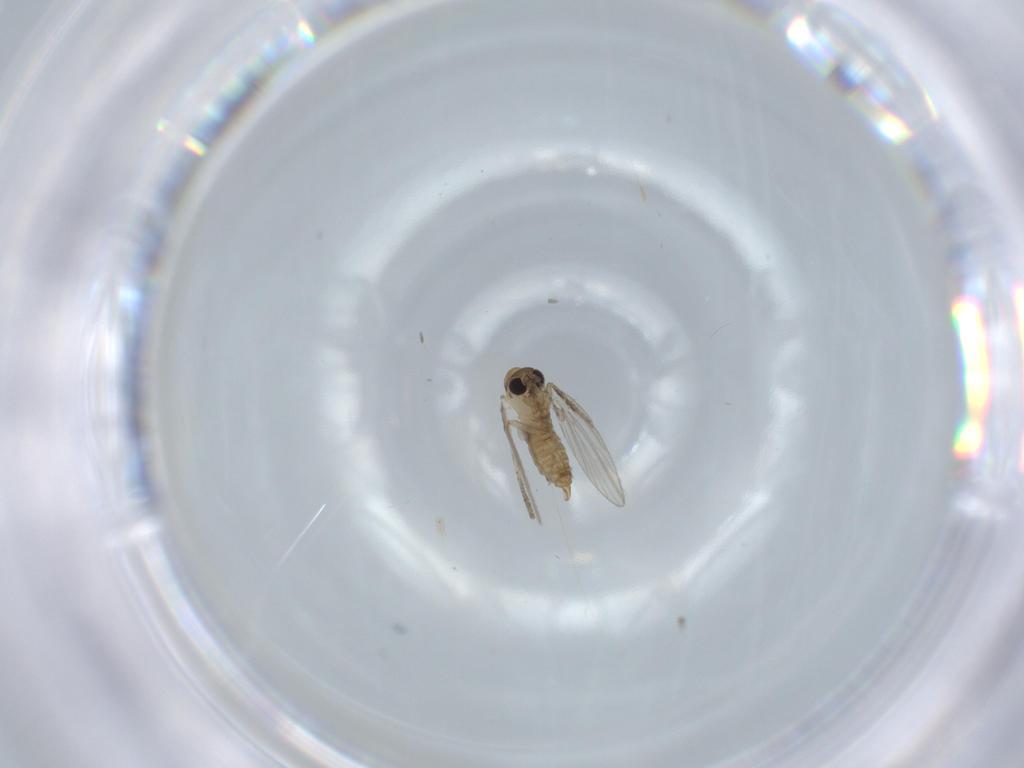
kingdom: Animalia
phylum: Arthropoda
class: Insecta
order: Diptera
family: Psychodidae
